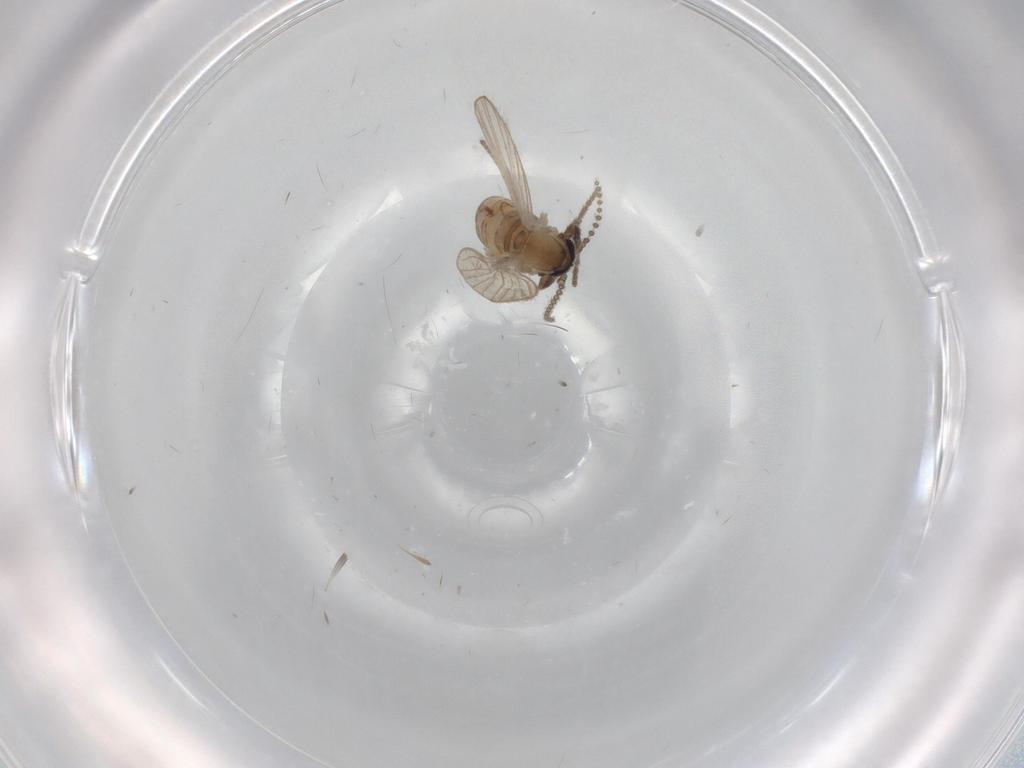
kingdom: Animalia
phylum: Arthropoda
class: Insecta
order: Diptera
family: Psychodidae
